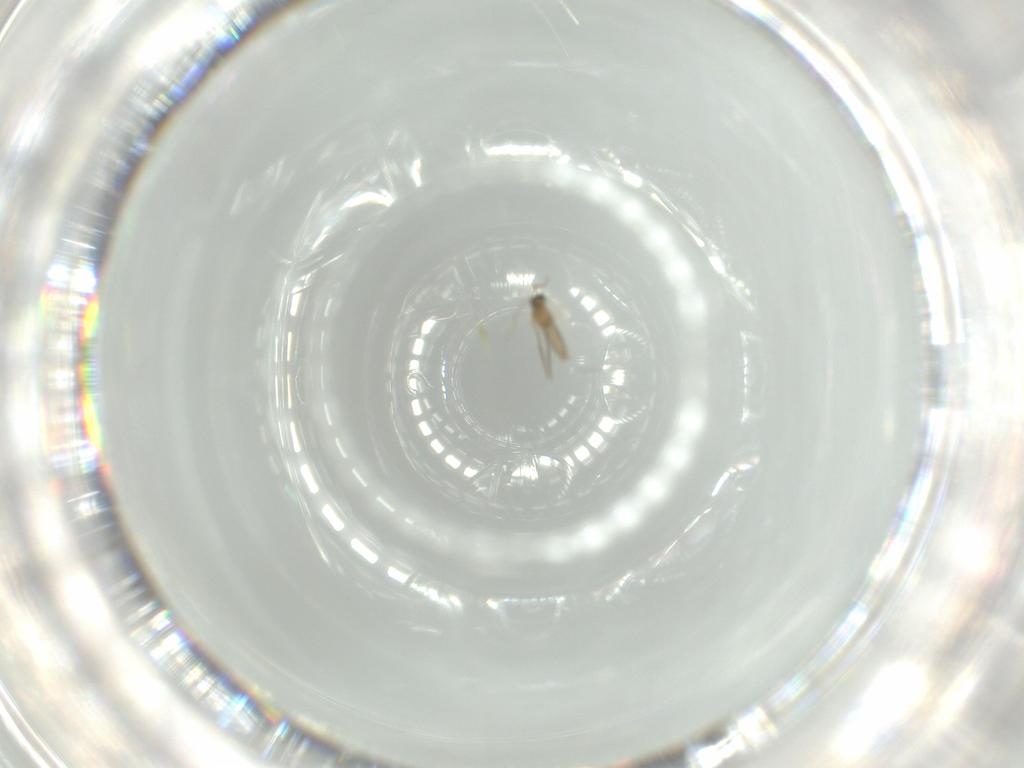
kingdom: Animalia
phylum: Arthropoda
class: Insecta
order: Diptera
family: Cecidomyiidae
